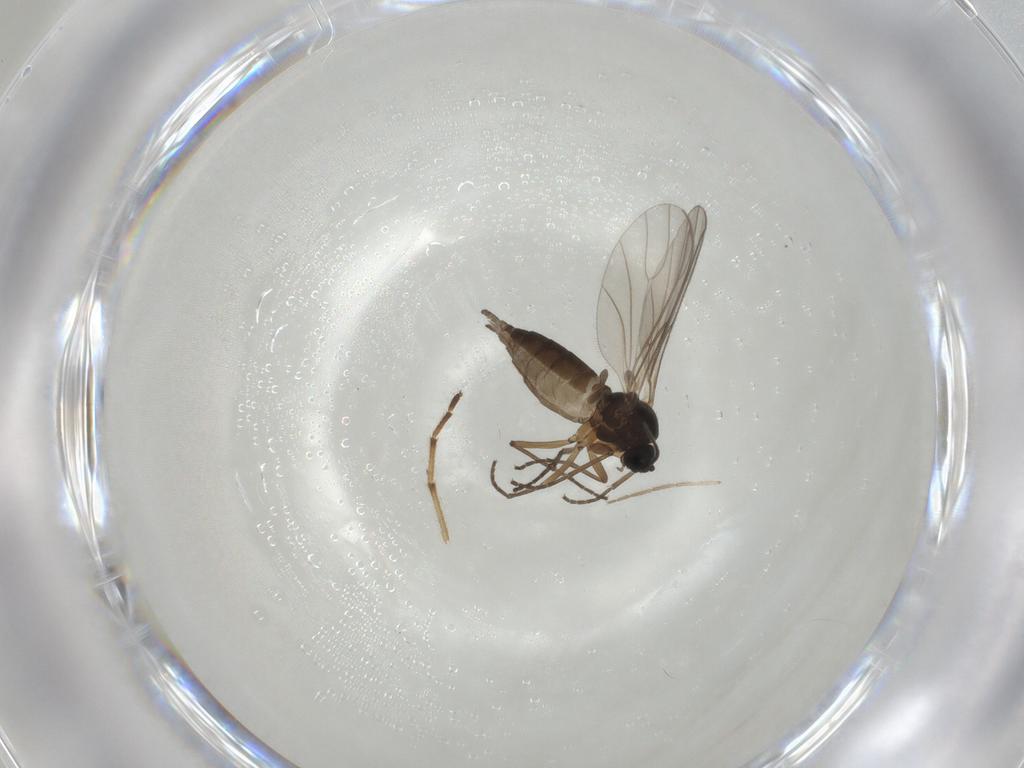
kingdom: Animalia
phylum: Arthropoda
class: Insecta
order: Diptera
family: Sciaridae
